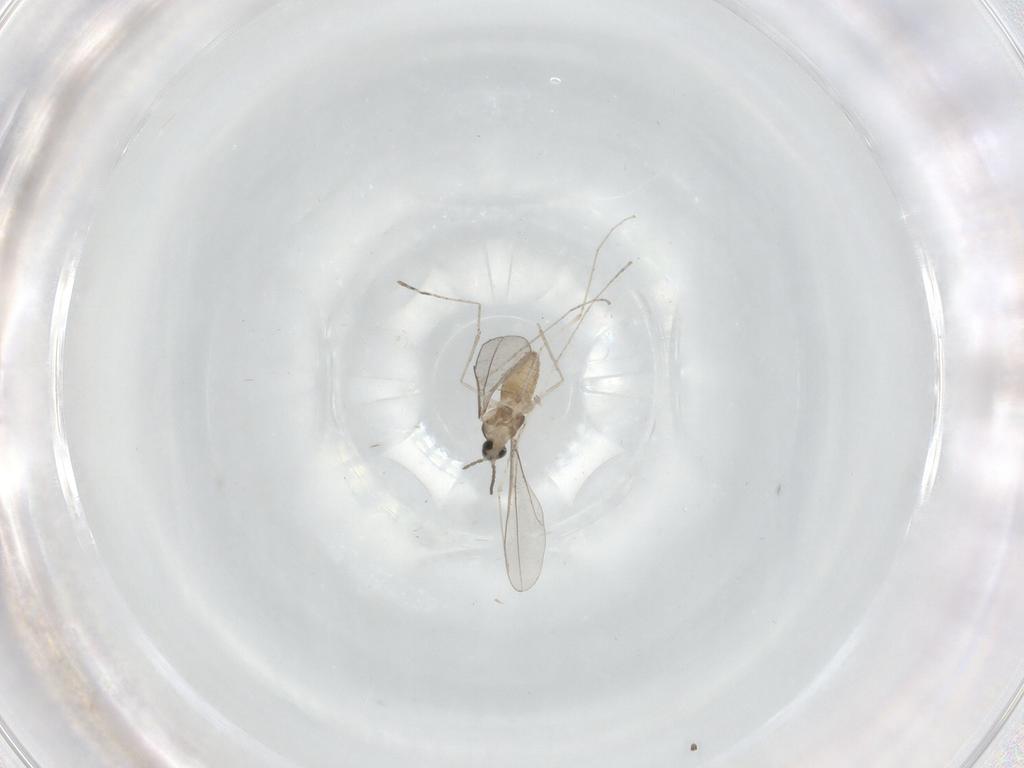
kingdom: Animalia
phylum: Arthropoda
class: Insecta
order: Diptera
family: Cecidomyiidae
